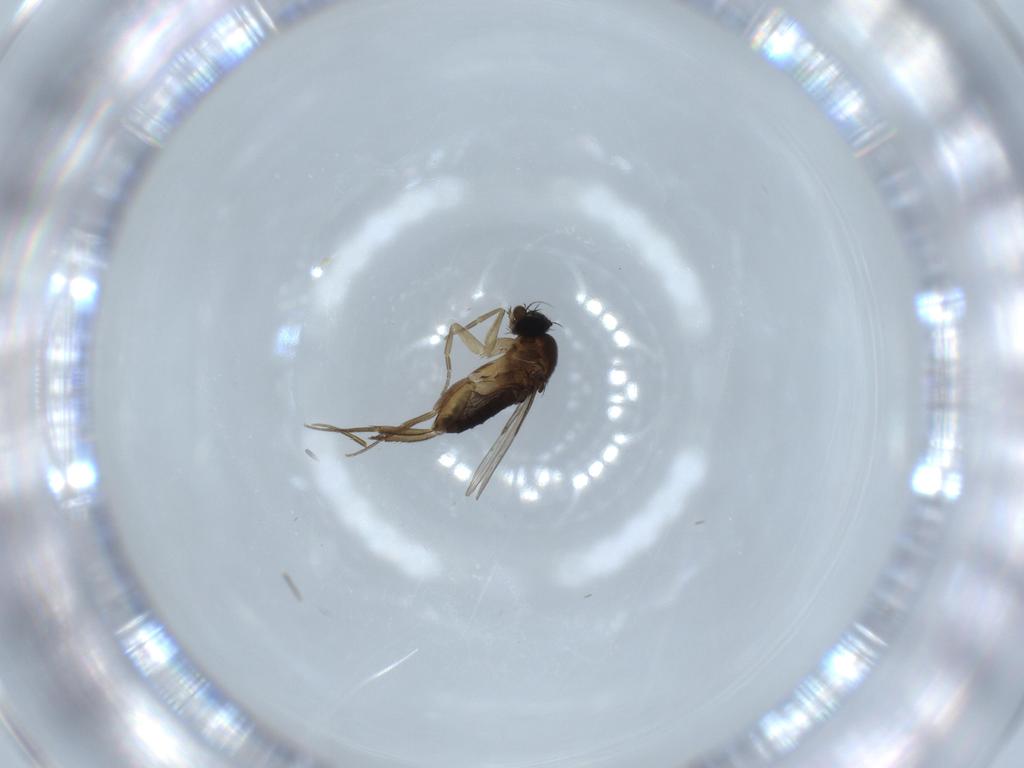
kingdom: Animalia
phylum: Arthropoda
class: Insecta
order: Diptera
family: Phoridae
